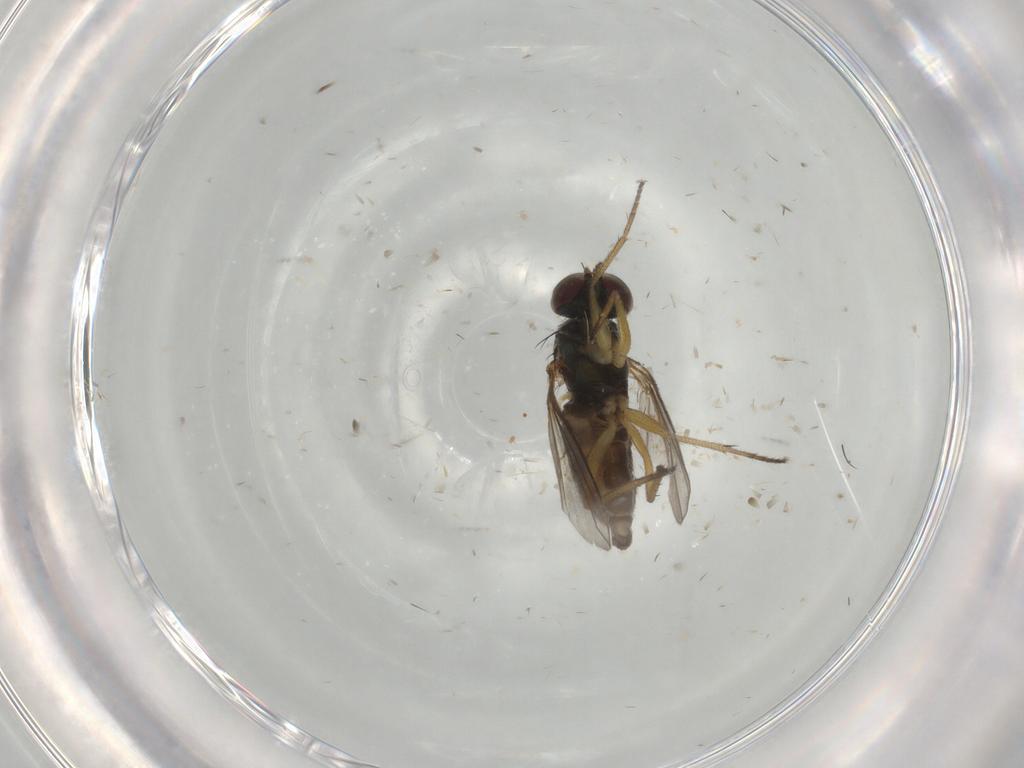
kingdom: Animalia
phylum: Arthropoda
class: Insecta
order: Diptera
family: Dolichopodidae
